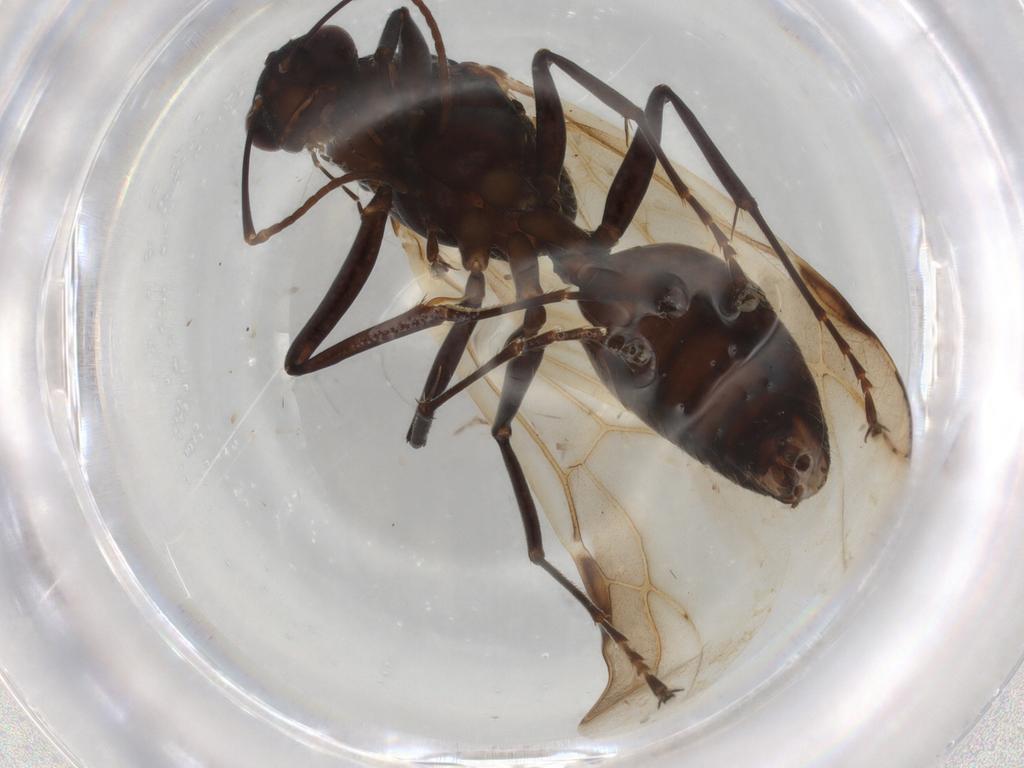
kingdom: Animalia
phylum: Arthropoda
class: Insecta
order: Hymenoptera
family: Formicidae
